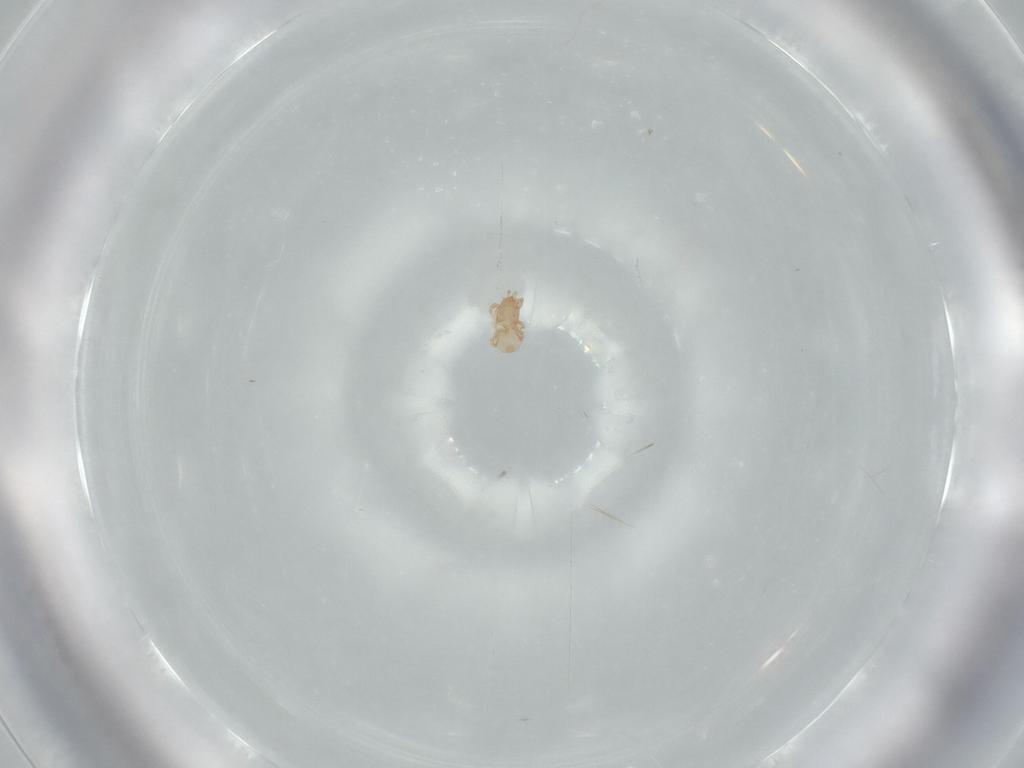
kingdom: Animalia
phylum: Arthropoda
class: Arachnida
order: Mesostigmata
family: Ascidae
